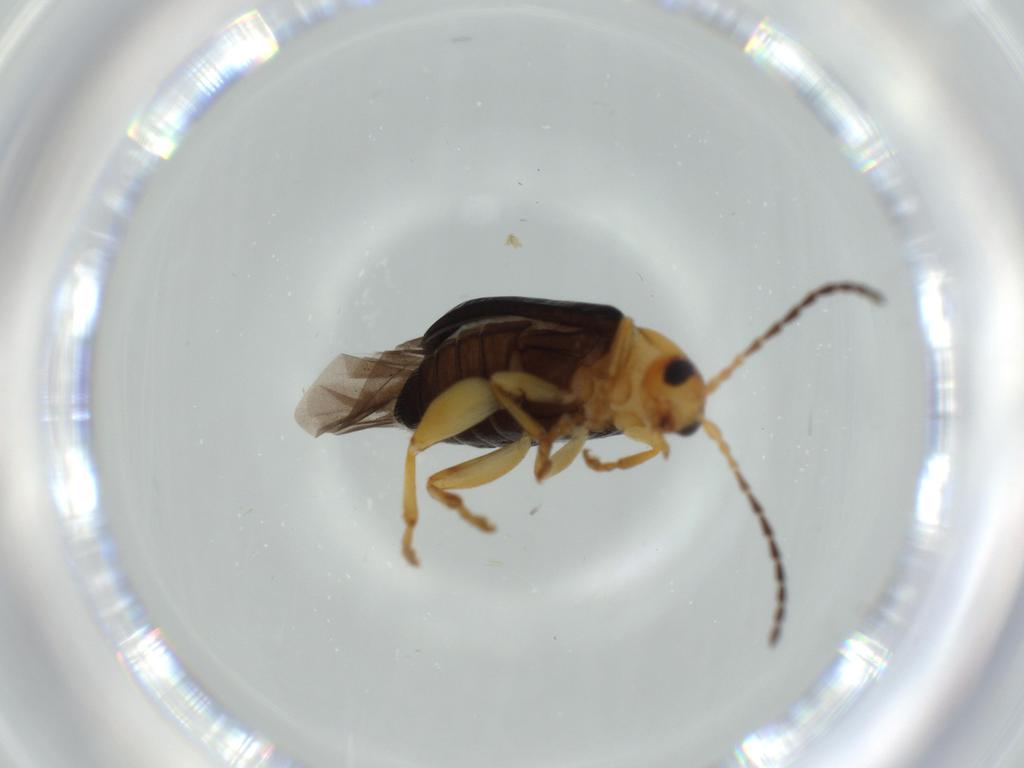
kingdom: Animalia
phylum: Arthropoda
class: Insecta
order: Coleoptera
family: Chrysomelidae
